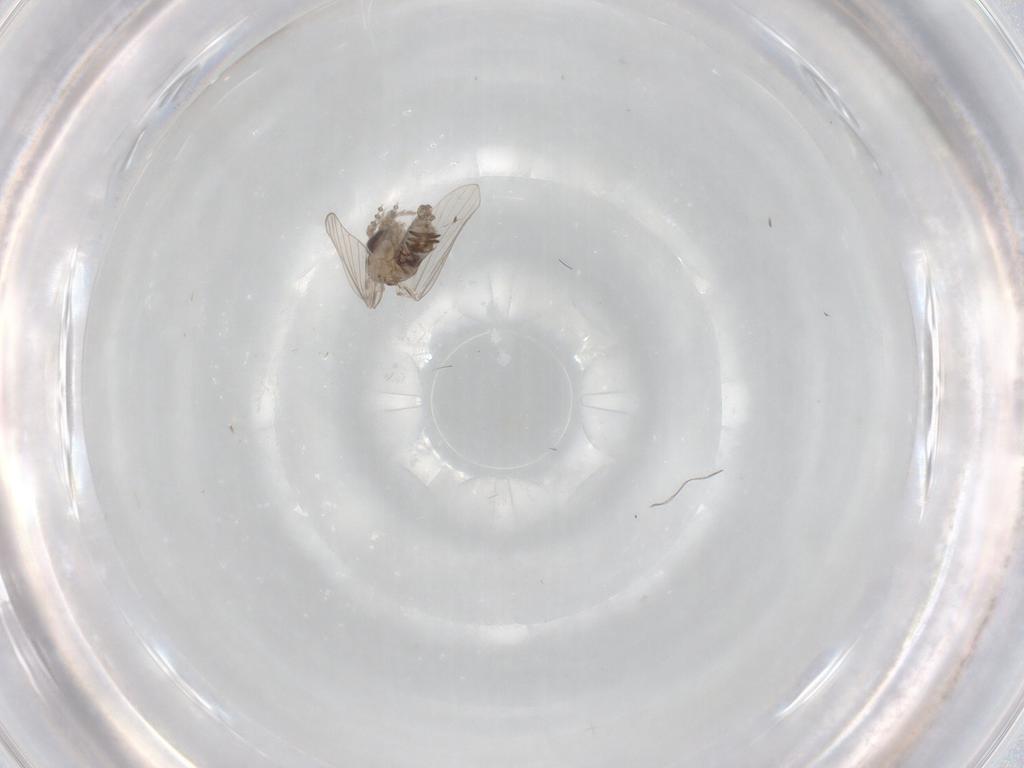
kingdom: Animalia
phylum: Arthropoda
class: Insecta
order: Diptera
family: Psychodidae
